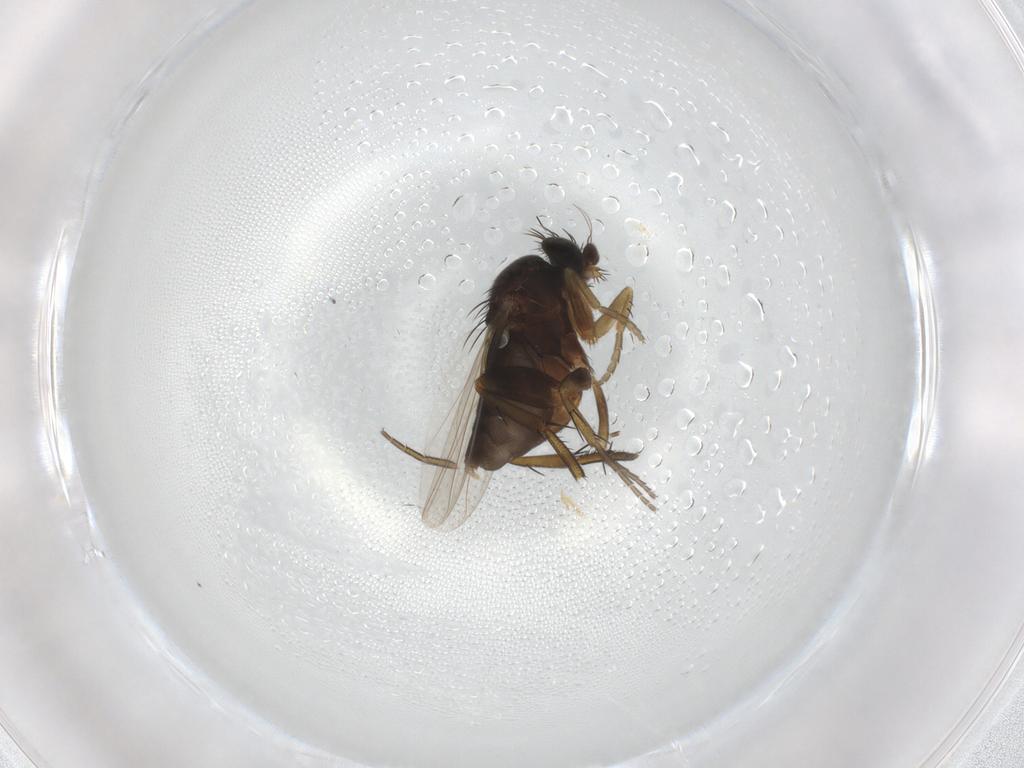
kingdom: Animalia
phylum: Arthropoda
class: Insecta
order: Diptera
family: Phoridae
